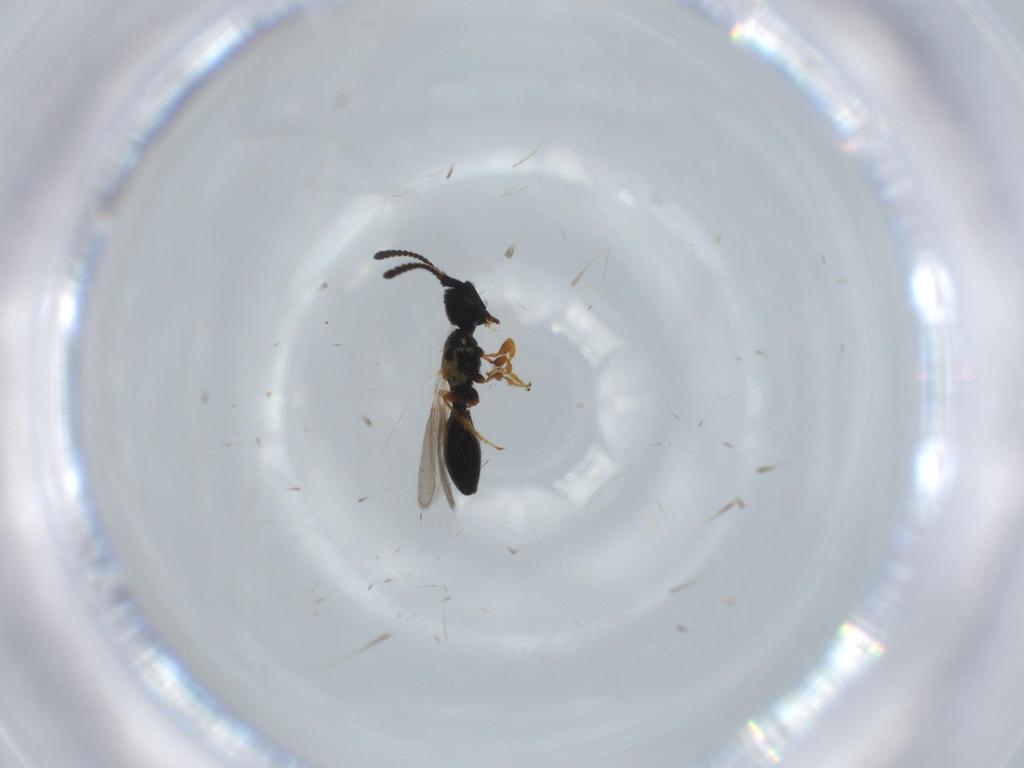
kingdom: Animalia
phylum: Arthropoda
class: Insecta
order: Hymenoptera
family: Diapriidae
